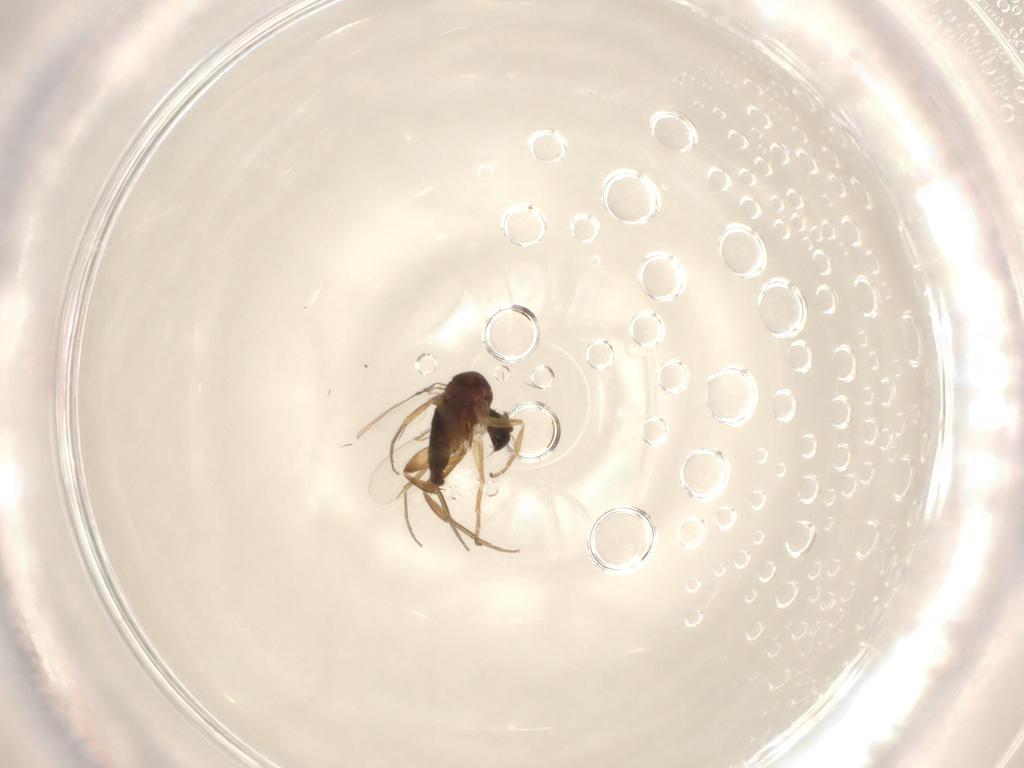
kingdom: Animalia
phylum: Arthropoda
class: Insecta
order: Diptera
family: Phoridae
